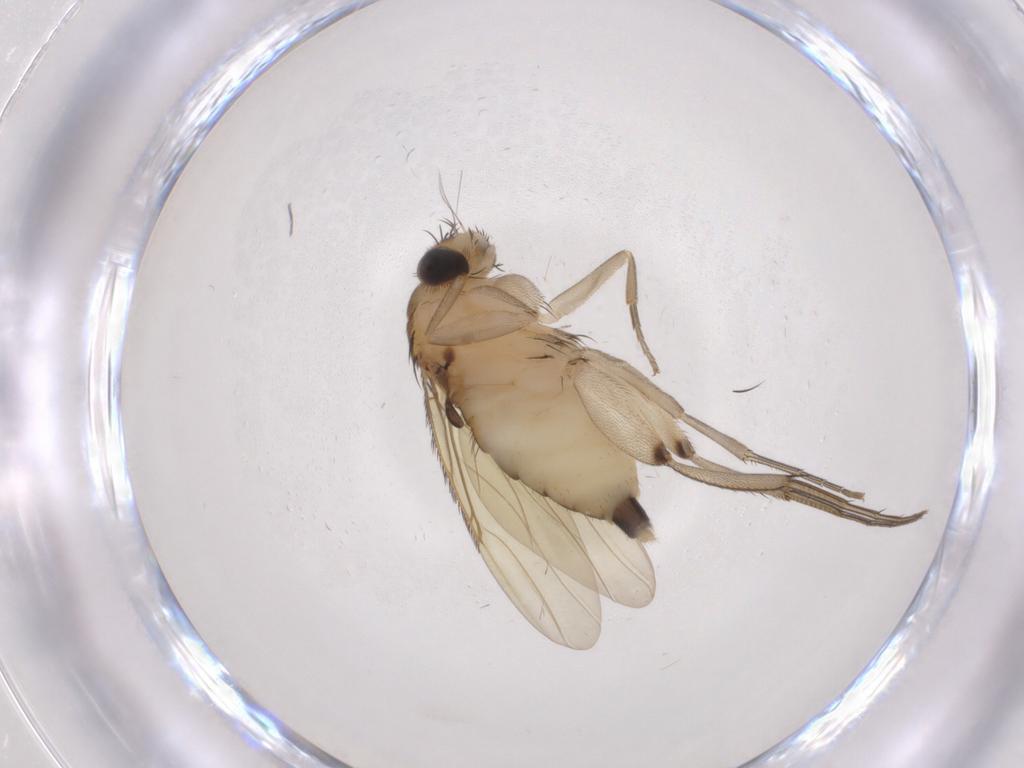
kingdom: Animalia
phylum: Arthropoda
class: Insecta
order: Diptera
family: Phoridae
